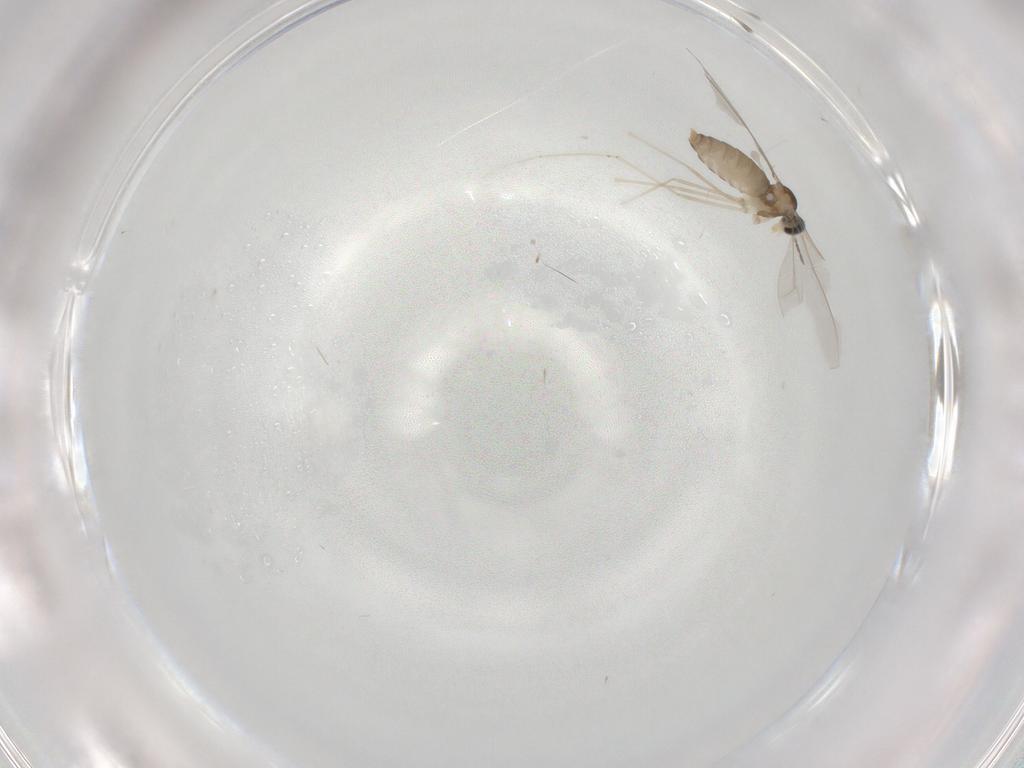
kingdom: Animalia
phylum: Arthropoda
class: Insecta
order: Diptera
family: Cecidomyiidae
